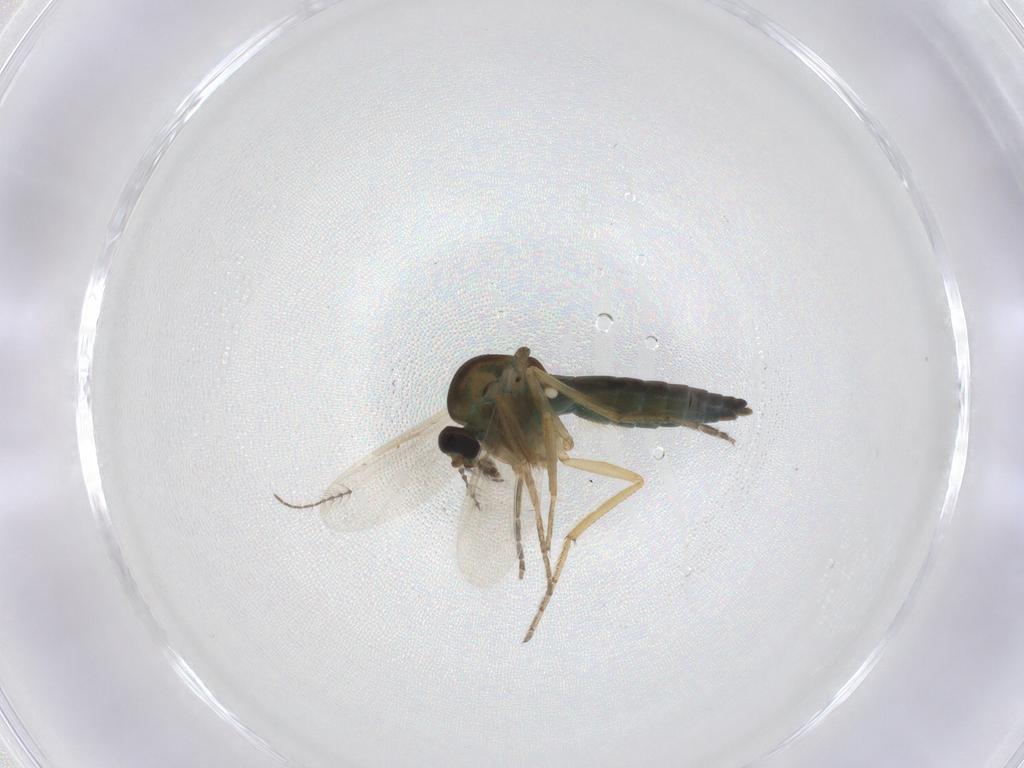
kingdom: Animalia
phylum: Arthropoda
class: Insecta
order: Diptera
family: Ceratopogonidae
